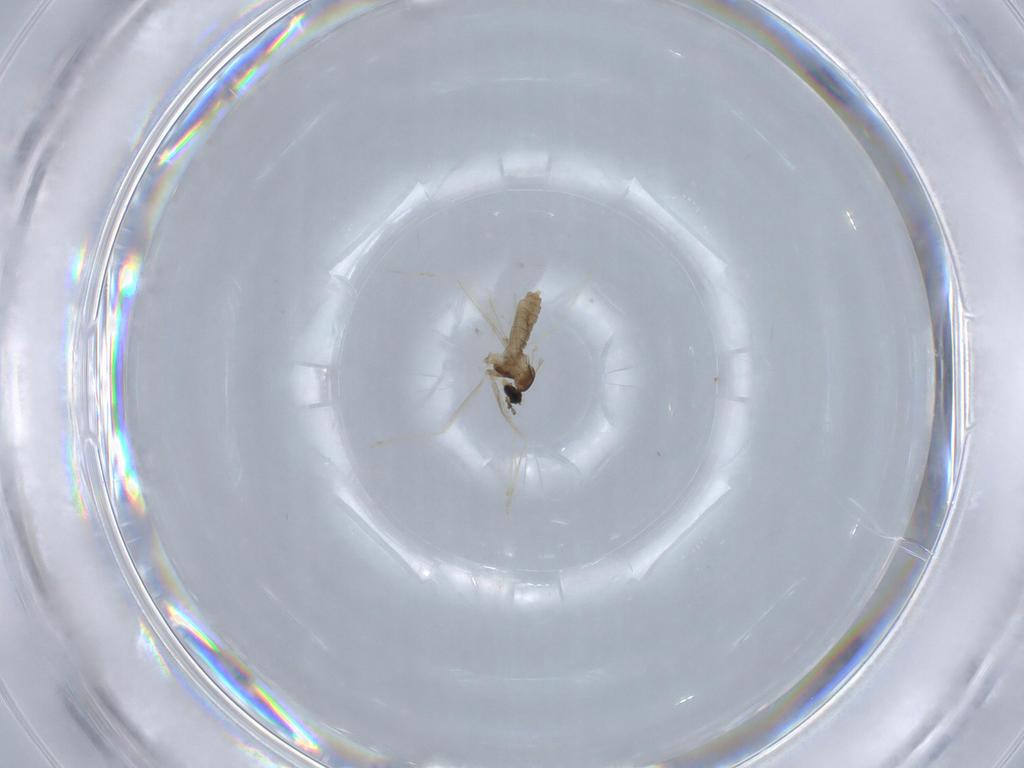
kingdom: Animalia
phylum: Arthropoda
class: Insecta
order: Diptera
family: Cecidomyiidae
